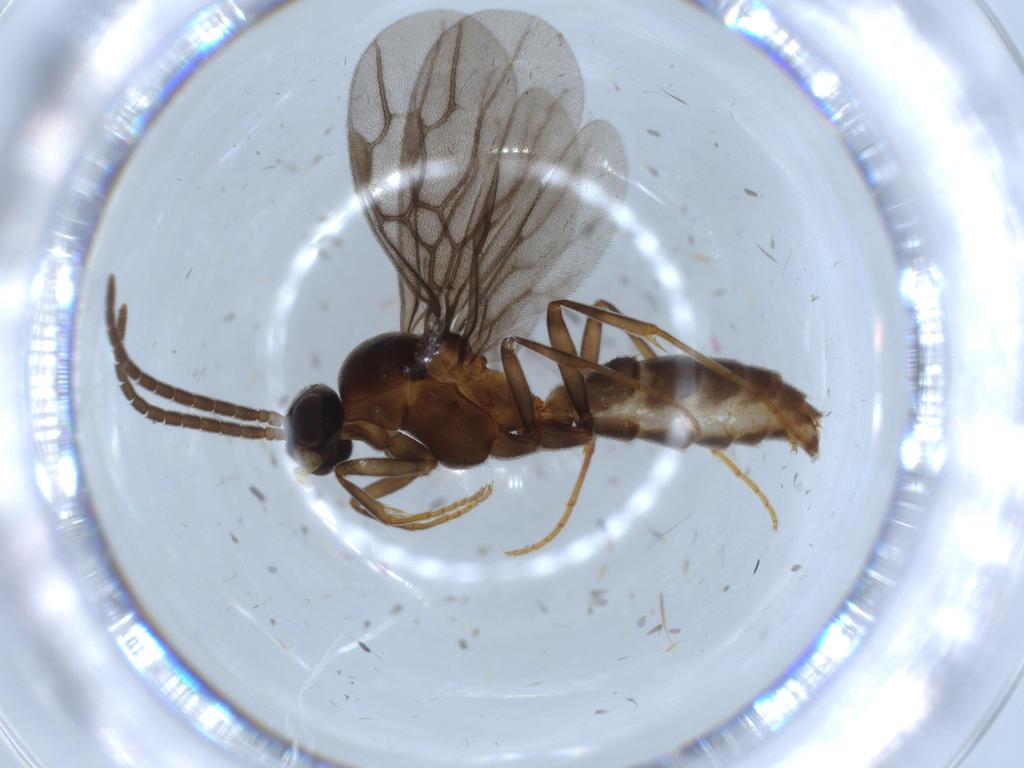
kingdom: Animalia
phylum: Arthropoda
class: Insecta
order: Hymenoptera
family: Formicidae
